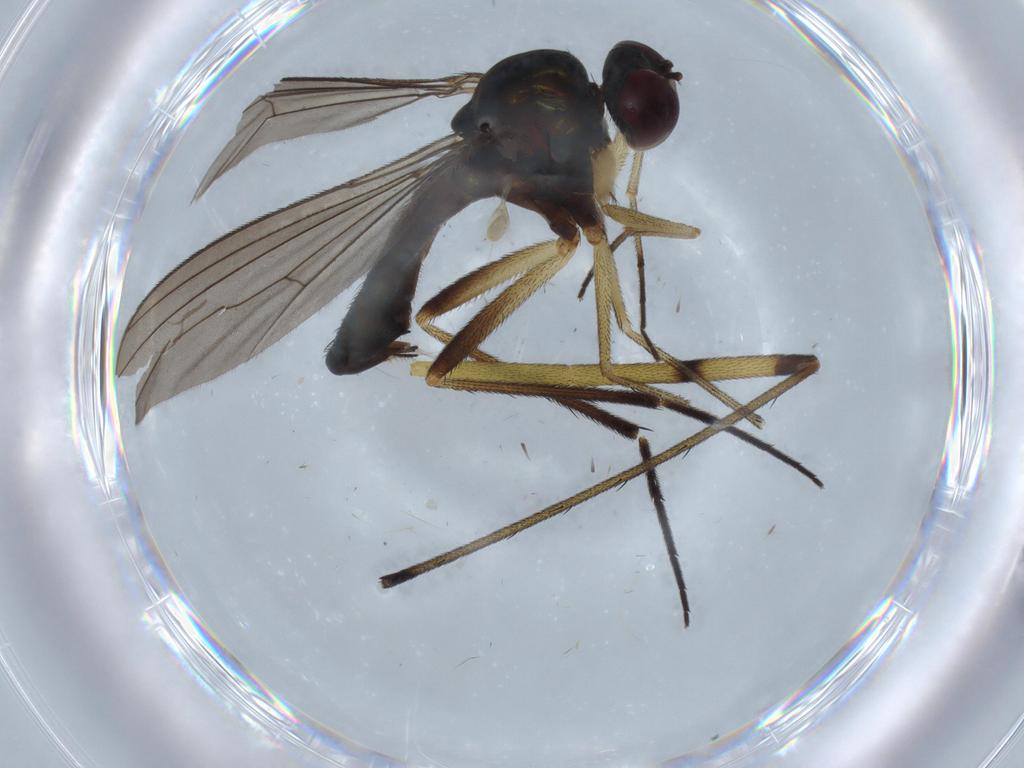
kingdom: Animalia
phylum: Arthropoda
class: Insecta
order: Diptera
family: Dolichopodidae
